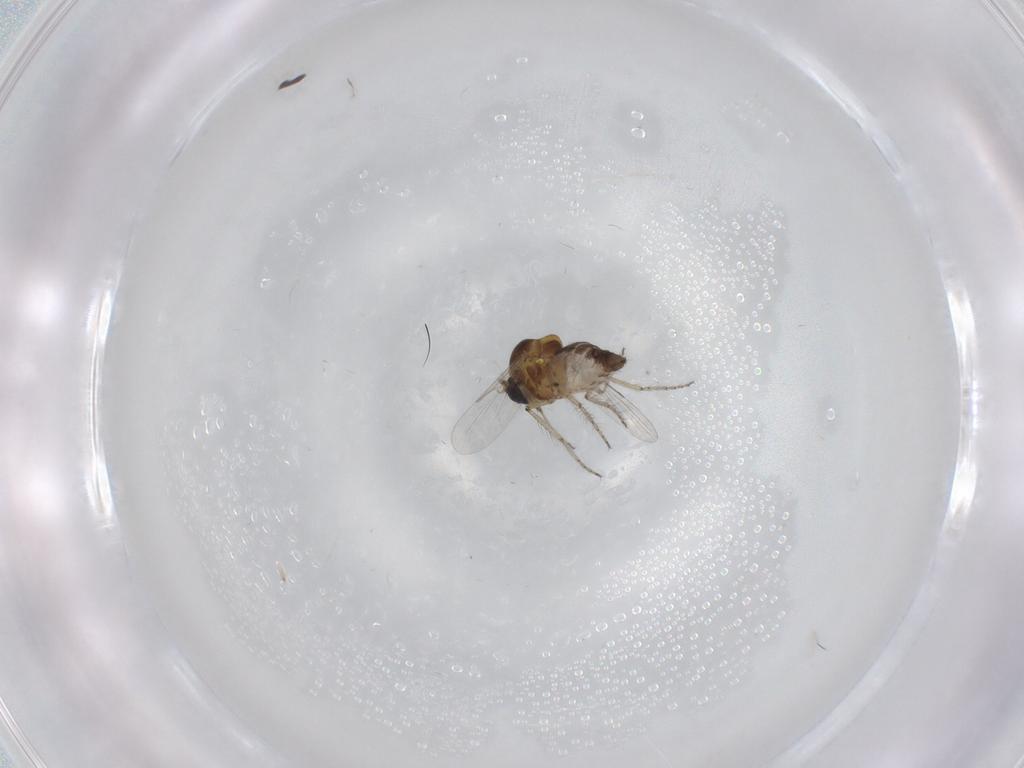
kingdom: Animalia
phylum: Arthropoda
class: Insecta
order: Diptera
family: Ceratopogonidae
